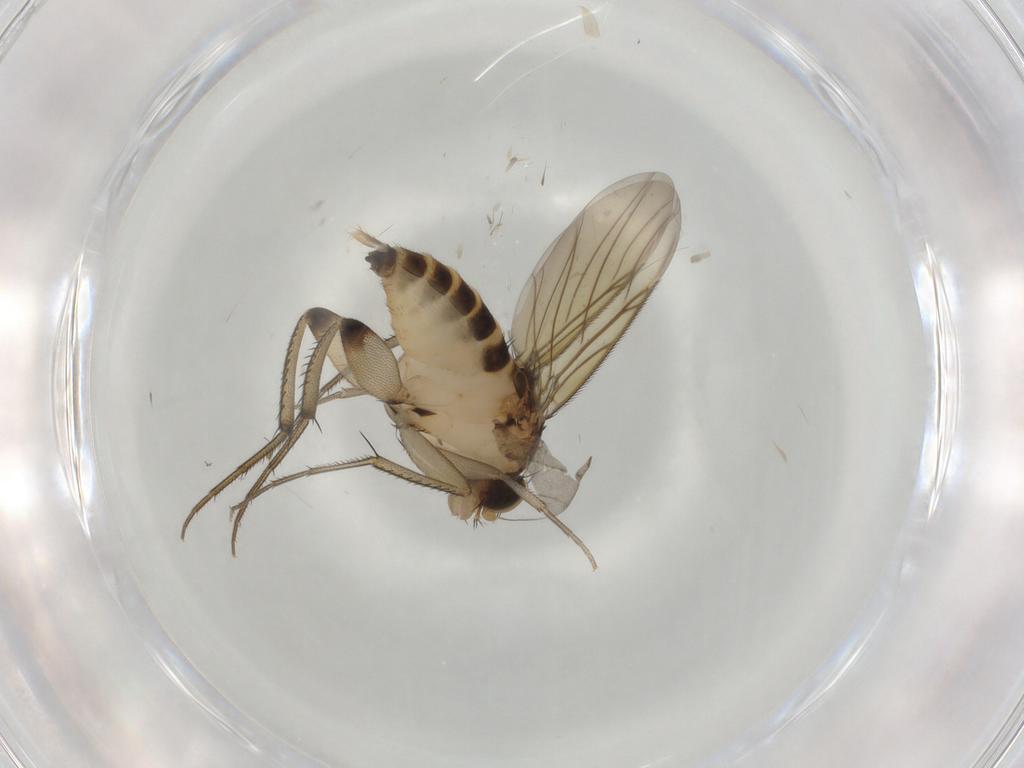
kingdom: Animalia
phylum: Arthropoda
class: Insecta
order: Diptera
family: Phoridae
